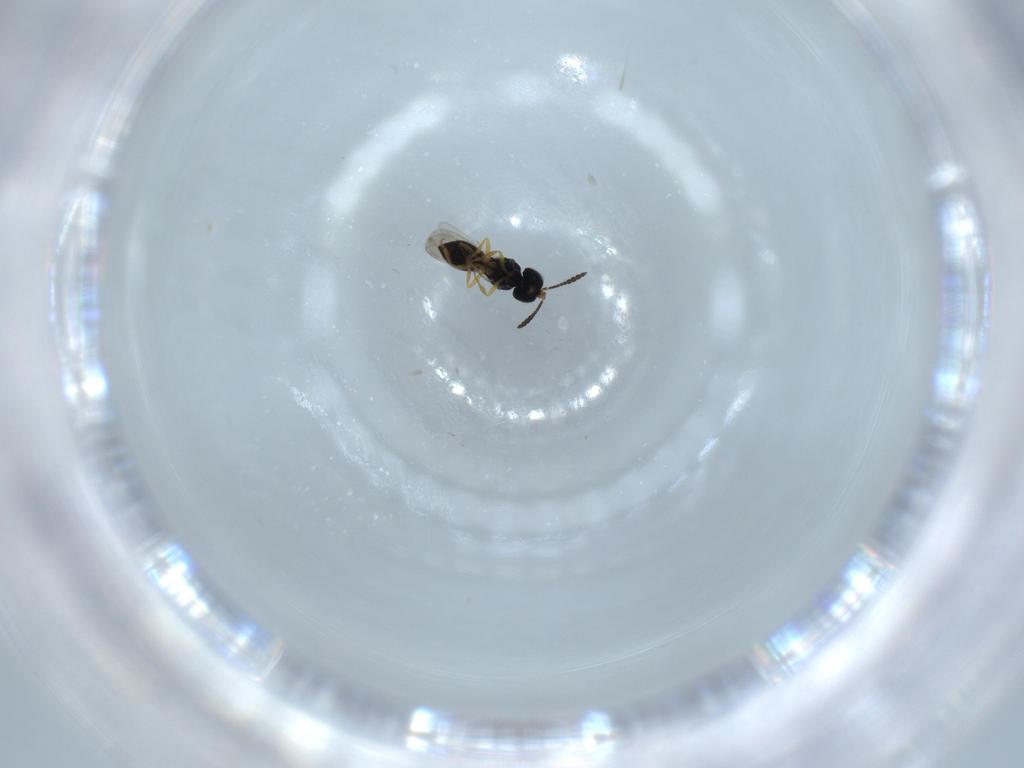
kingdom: Animalia
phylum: Arthropoda
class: Insecta
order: Hymenoptera
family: Scelionidae
